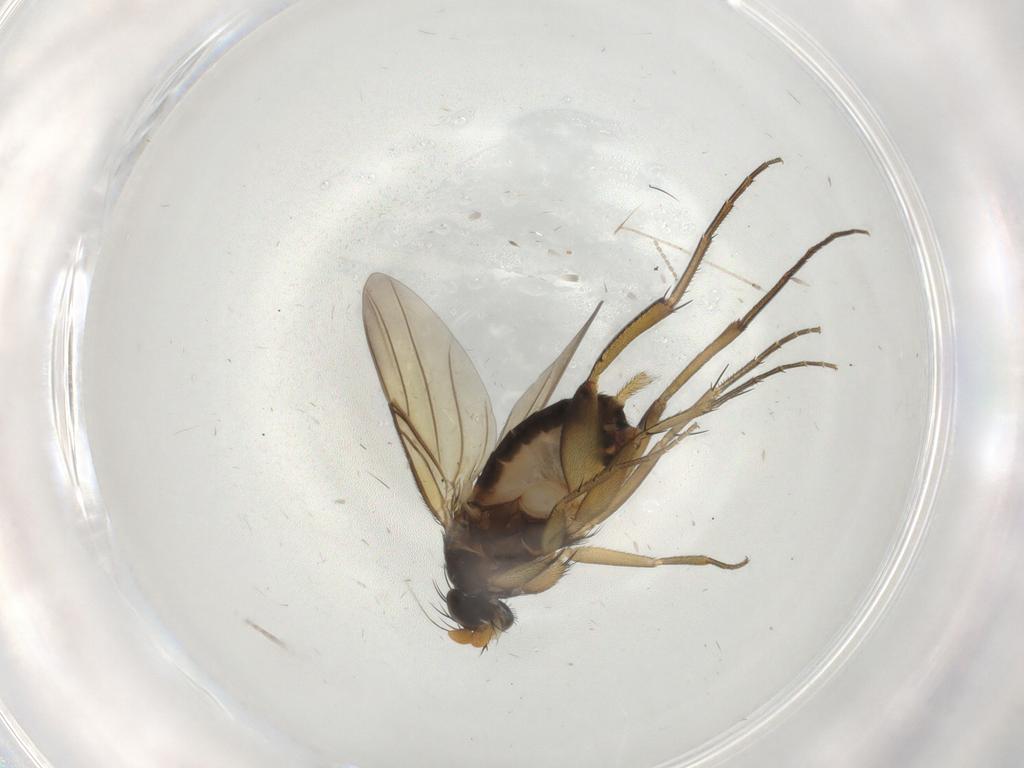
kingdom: Animalia
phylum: Arthropoda
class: Insecta
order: Diptera
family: Phoridae
